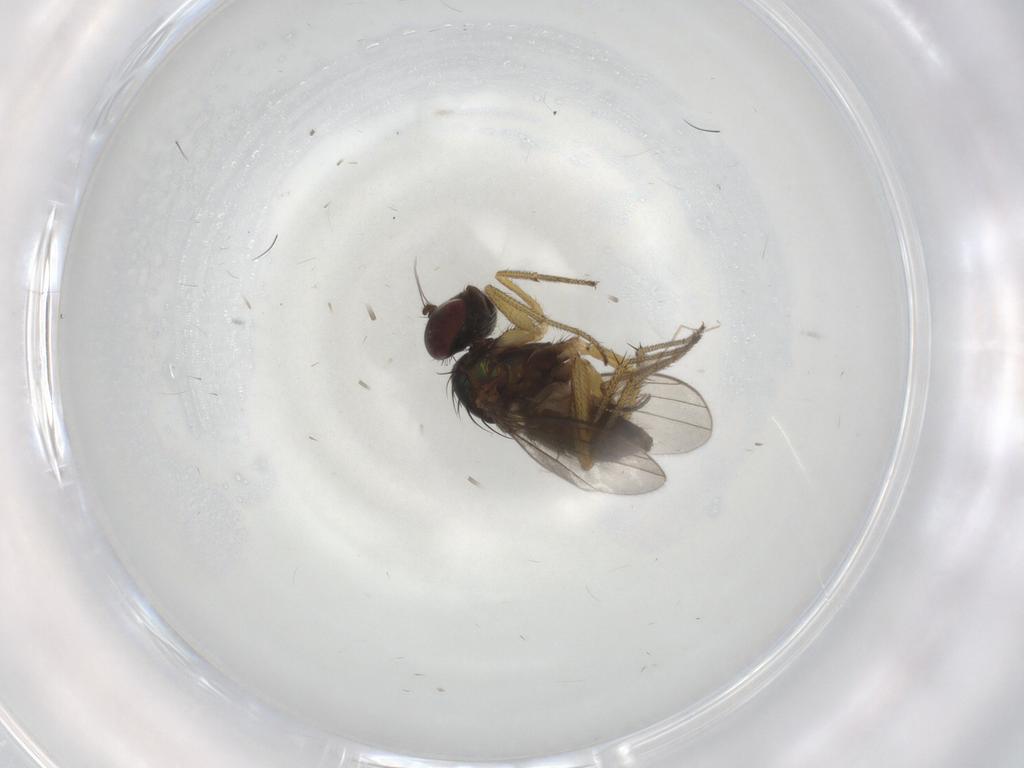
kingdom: Animalia
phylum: Arthropoda
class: Insecta
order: Diptera
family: Sciaridae
